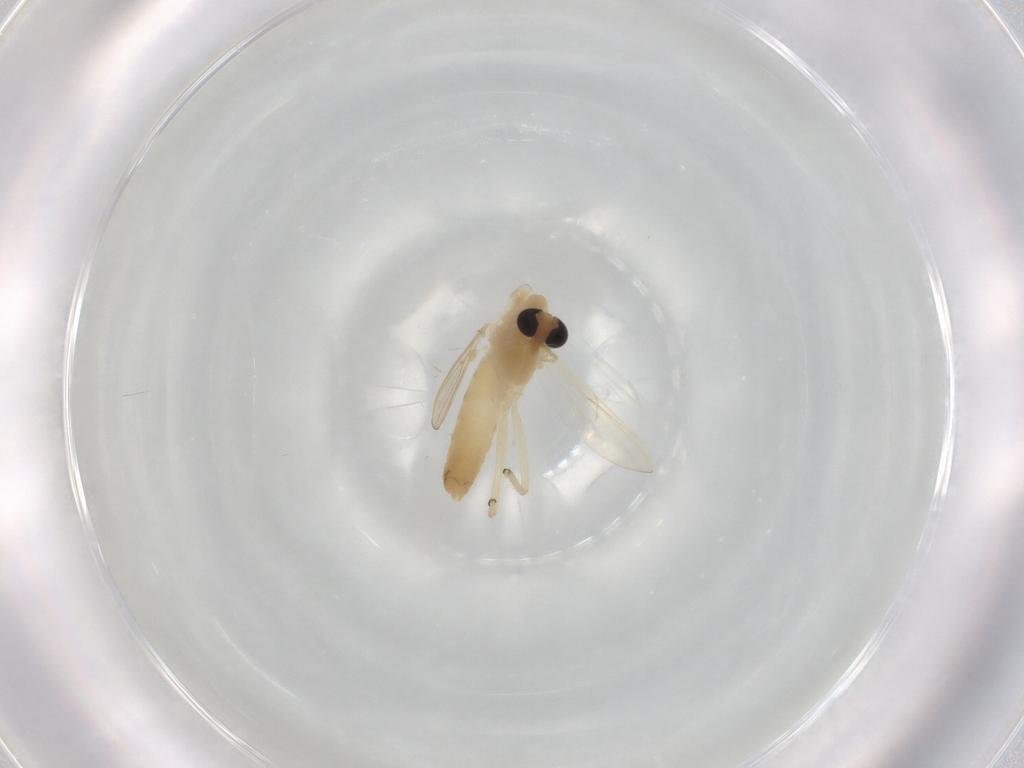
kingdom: Animalia
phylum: Arthropoda
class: Insecta
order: Diptera
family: Chironomidae
